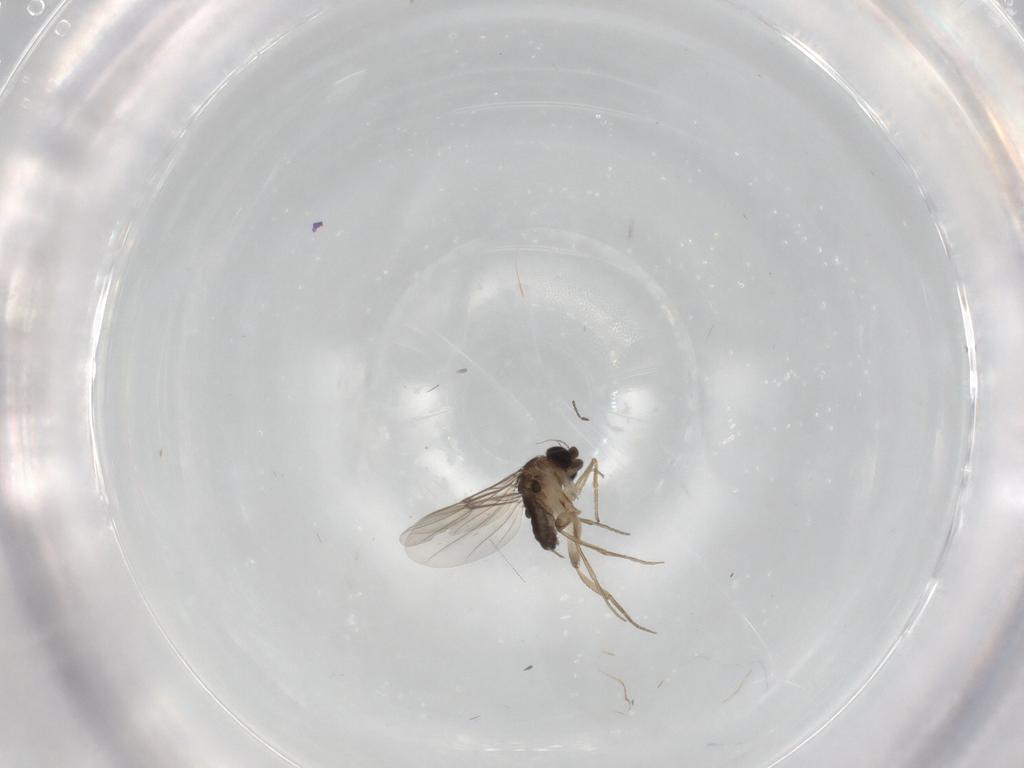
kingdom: Animalia
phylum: Arthropoda
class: Insecta
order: Diptera
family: Phoridae
